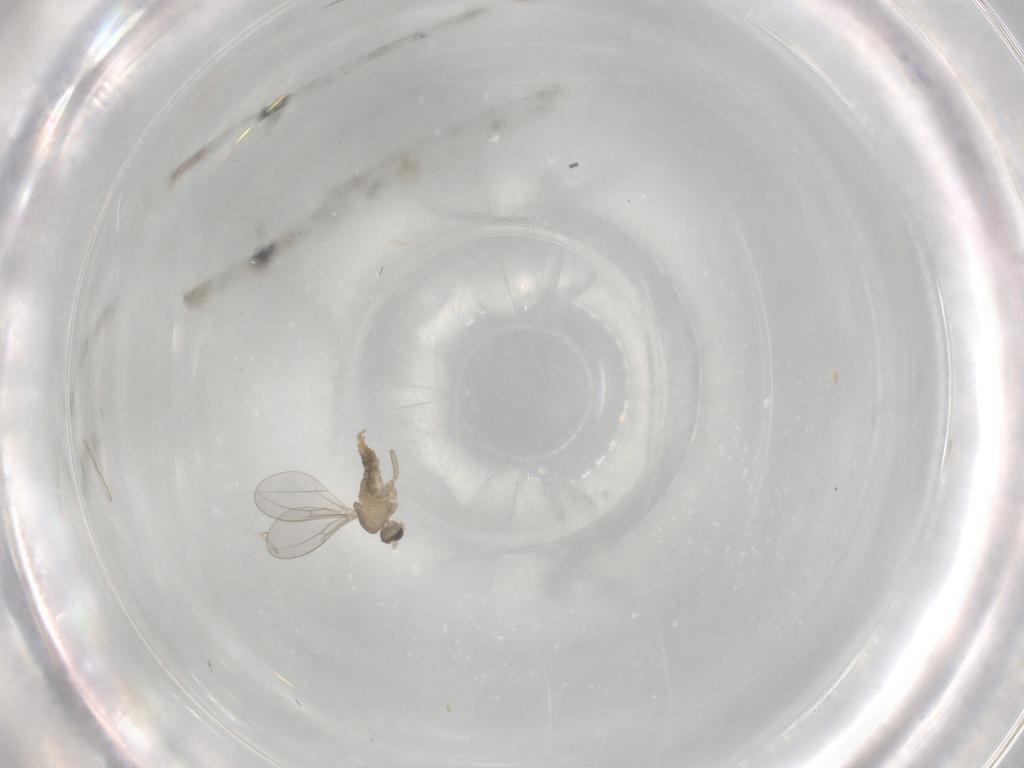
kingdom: Animalia
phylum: Arthropoda
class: Insecta
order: Diptera
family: Cecidomyiidae
